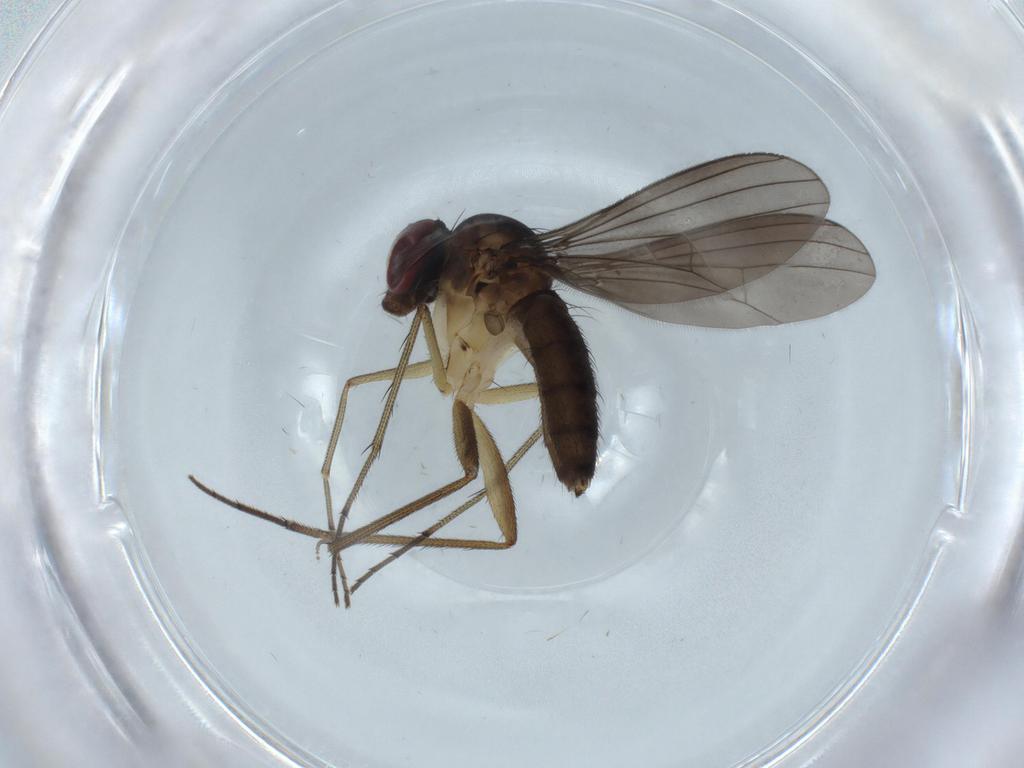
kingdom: Animalia
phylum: Arthropoda
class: Insecta
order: Diptera
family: Dolichopodidae
